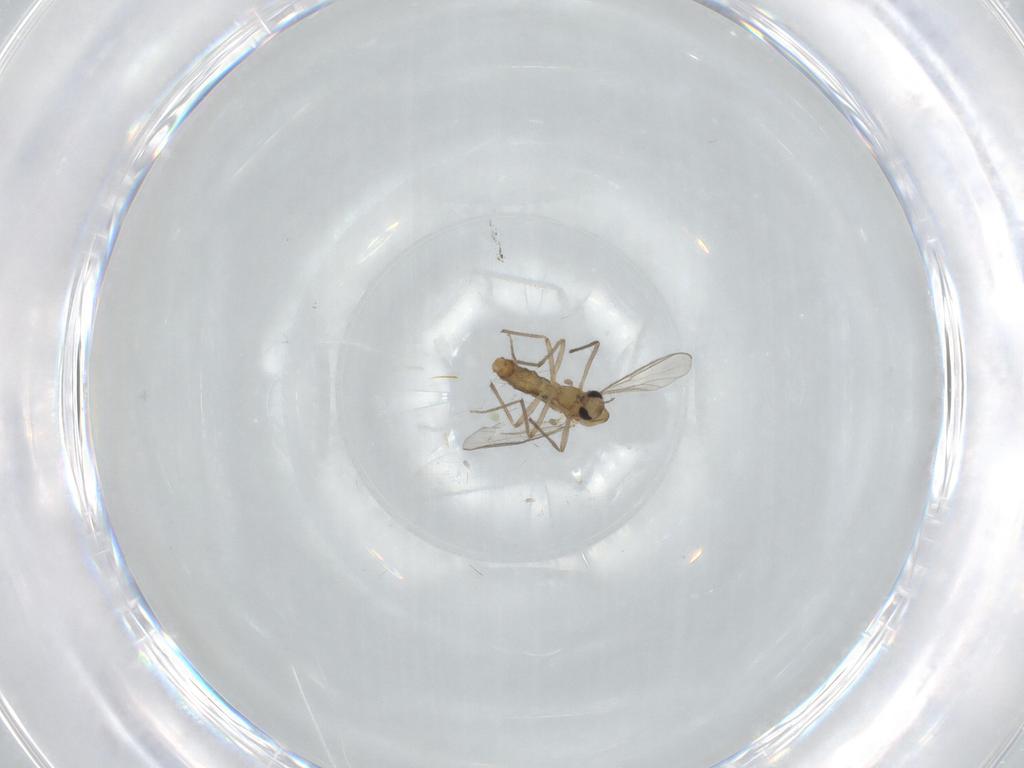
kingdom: Animalia
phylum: Arthropoda
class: Insecta
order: Diptera
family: Chironomidae
